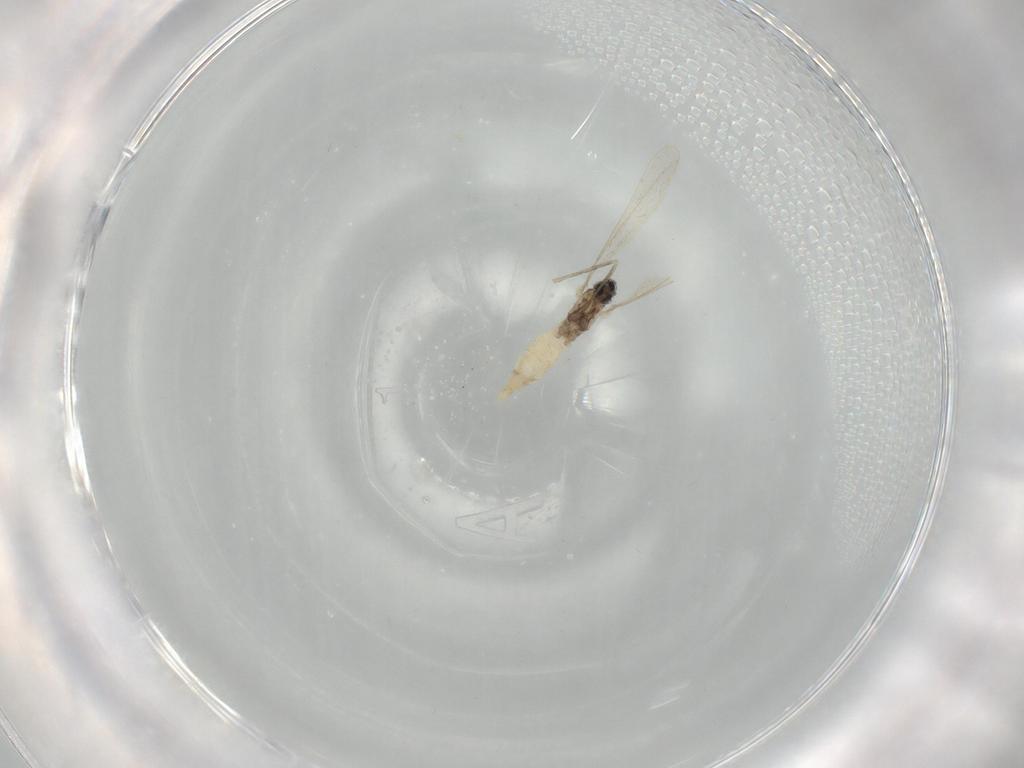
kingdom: Animalia
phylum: Arthropoda
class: Insecta
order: Diptera
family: Cecidomyiidae
